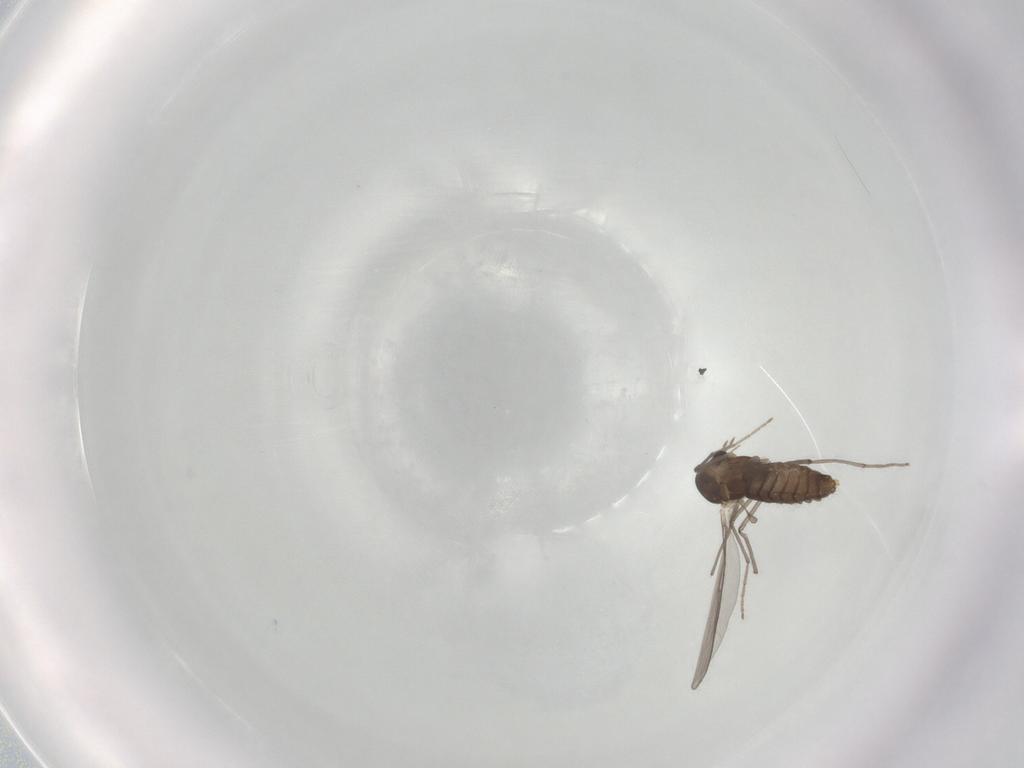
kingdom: Animalia
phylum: Arthropoda
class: Insecta
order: Diptera
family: Chironomidae
